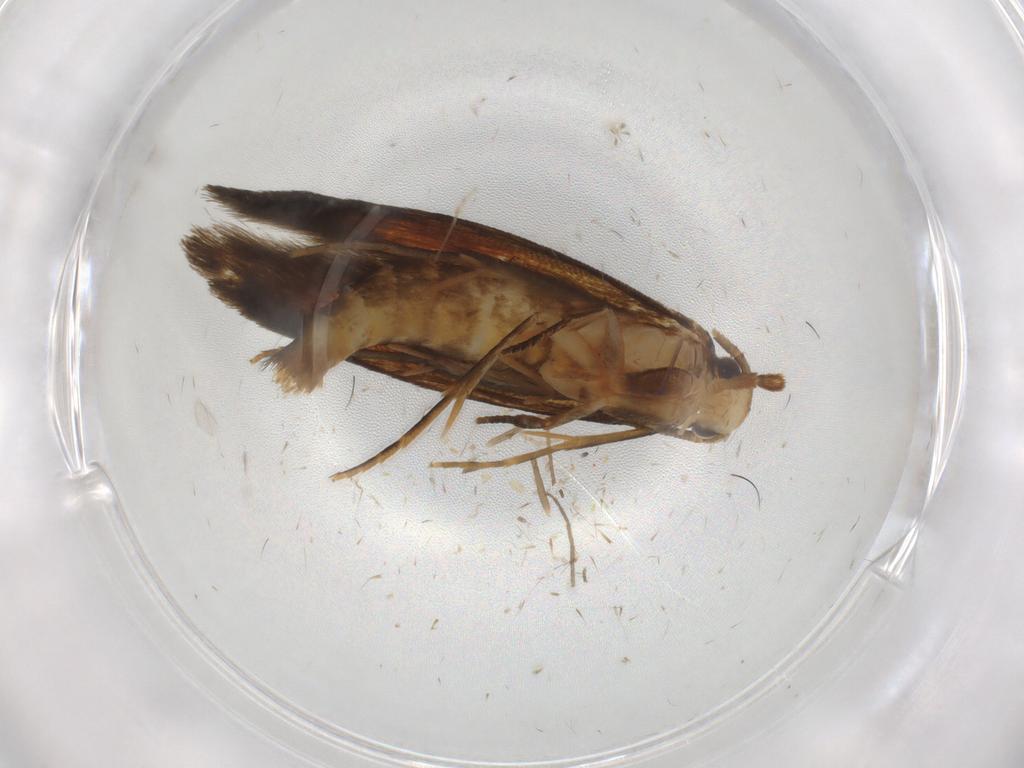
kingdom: Animalia
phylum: Arthropoda
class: Insecta
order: Lepidoptera
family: Tineidae
